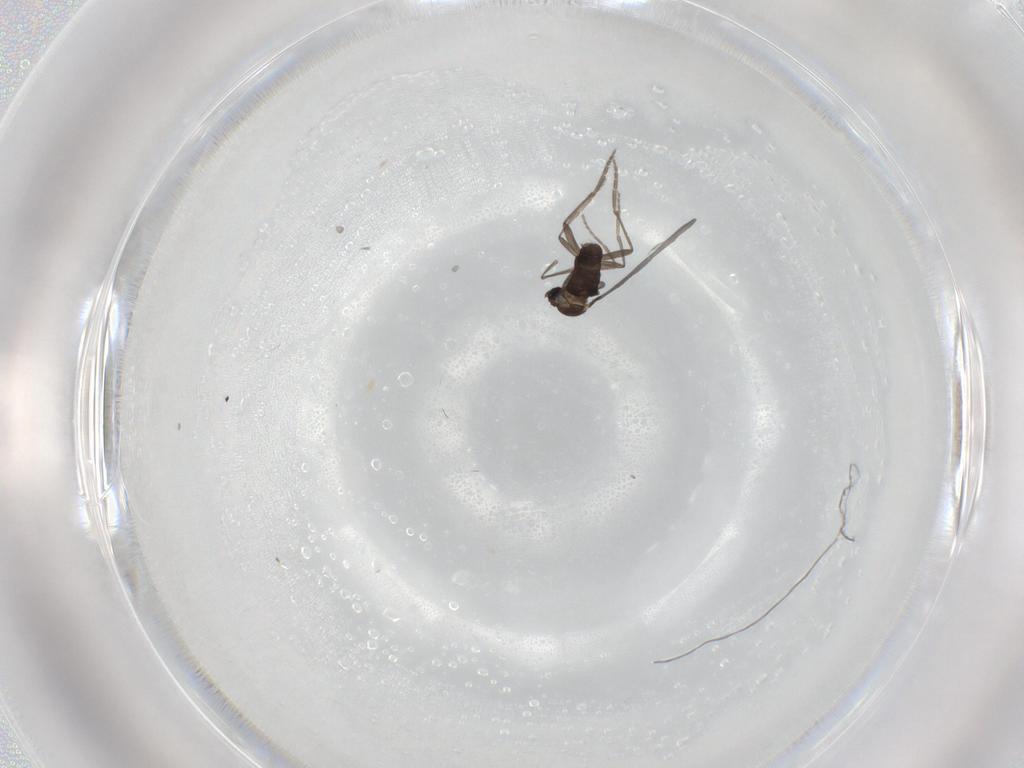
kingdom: Animalia
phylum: Arthropoda
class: Insecta
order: Diptera
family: Phoridae
